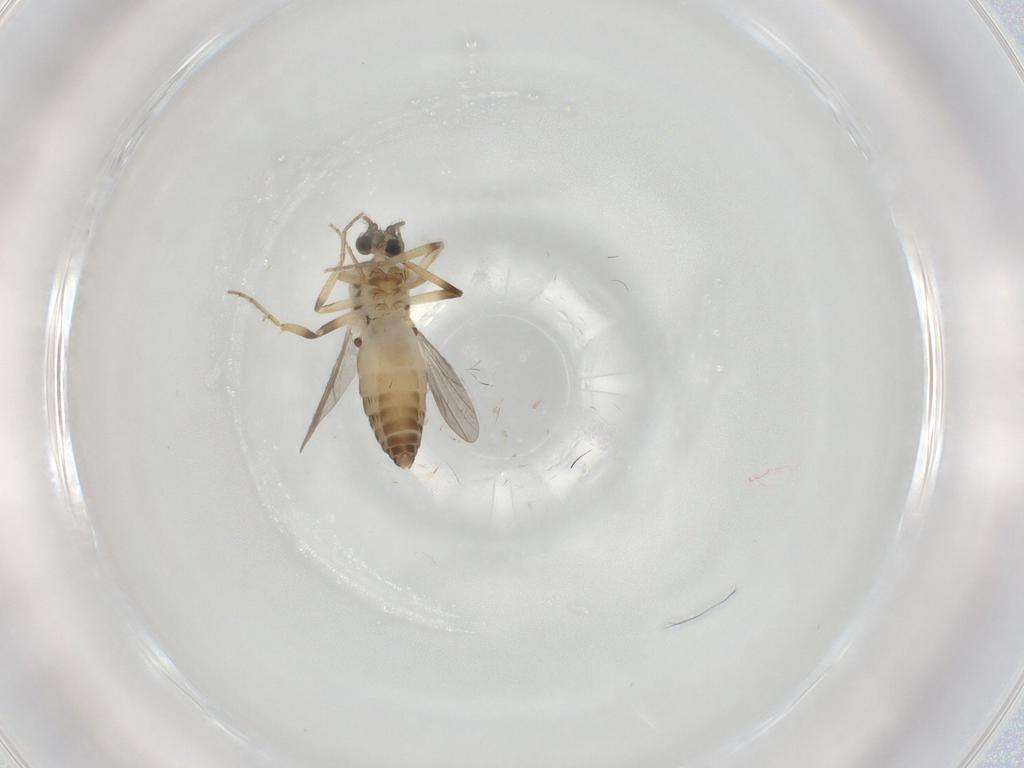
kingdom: Animalia
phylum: Arthropoda
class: Insecta
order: Diptera
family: Ceratopogonidae
